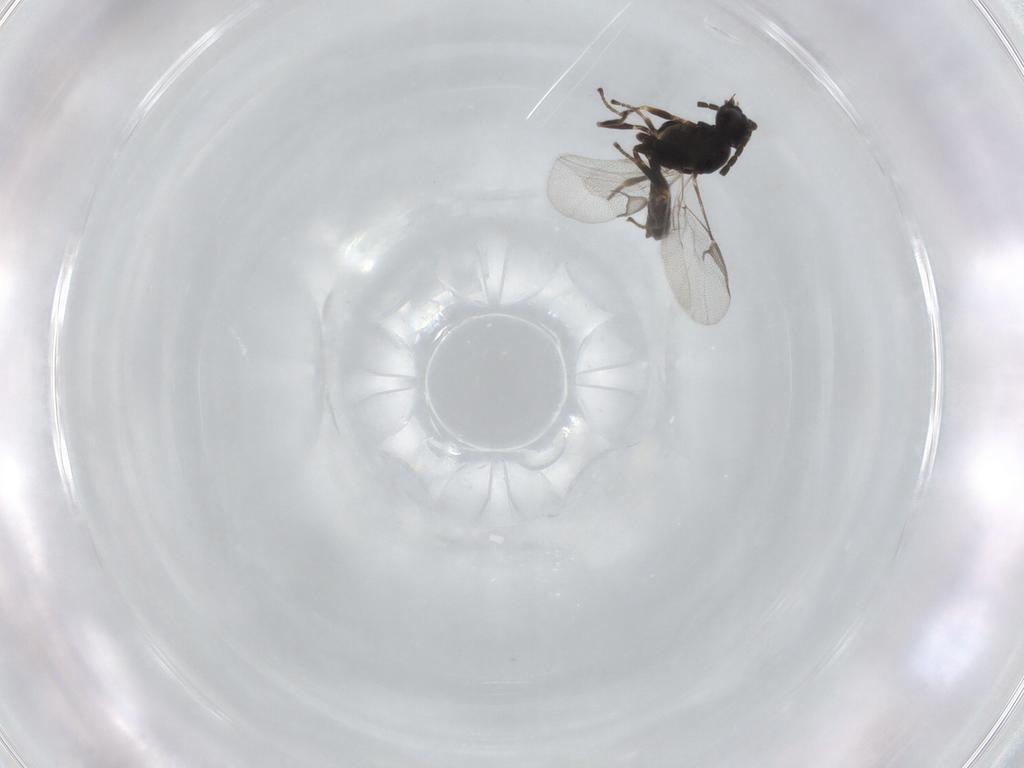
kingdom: Animalia
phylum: Arthropoda
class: Insecta
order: Hymenoptera
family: Braconidae
